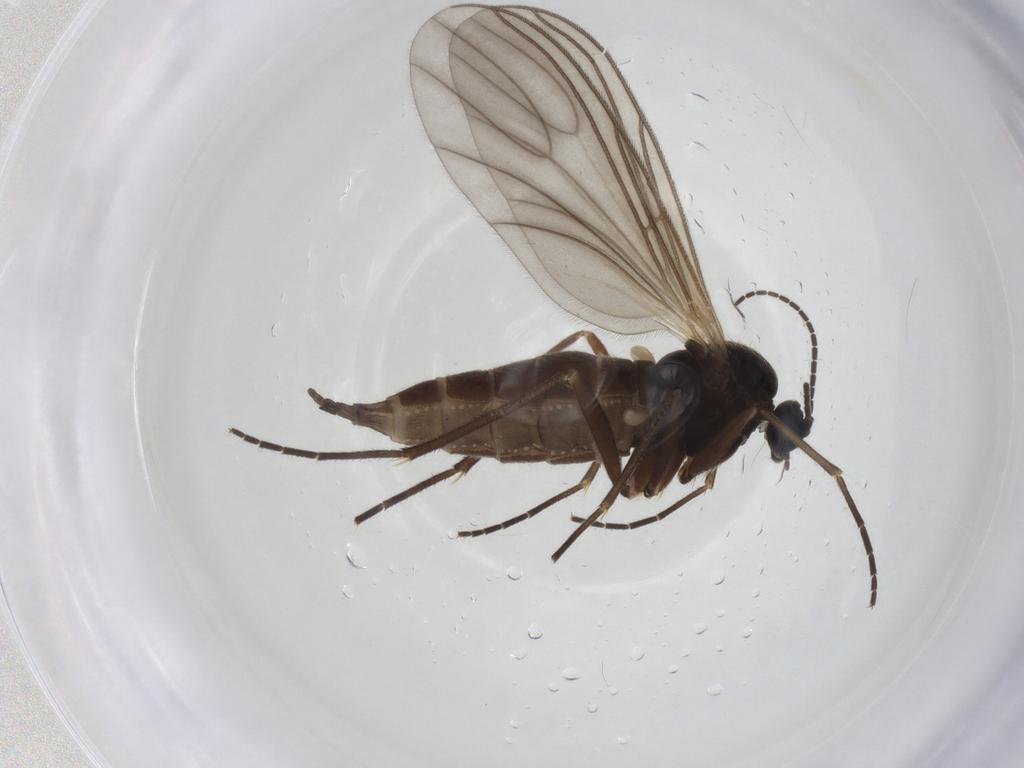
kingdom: Animalia
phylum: Arthropoda
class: Insecta
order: Diptera
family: Sciaridae
